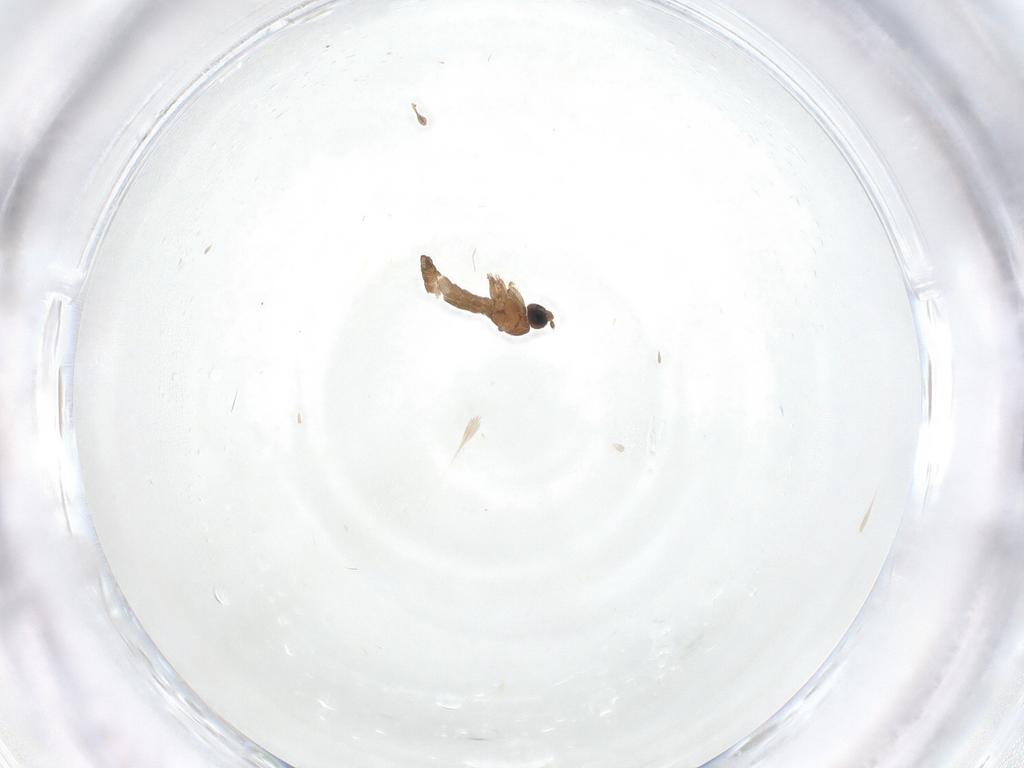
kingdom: Animalia
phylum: Arthropoda
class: Insecta
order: Diptera
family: Sciaridae
